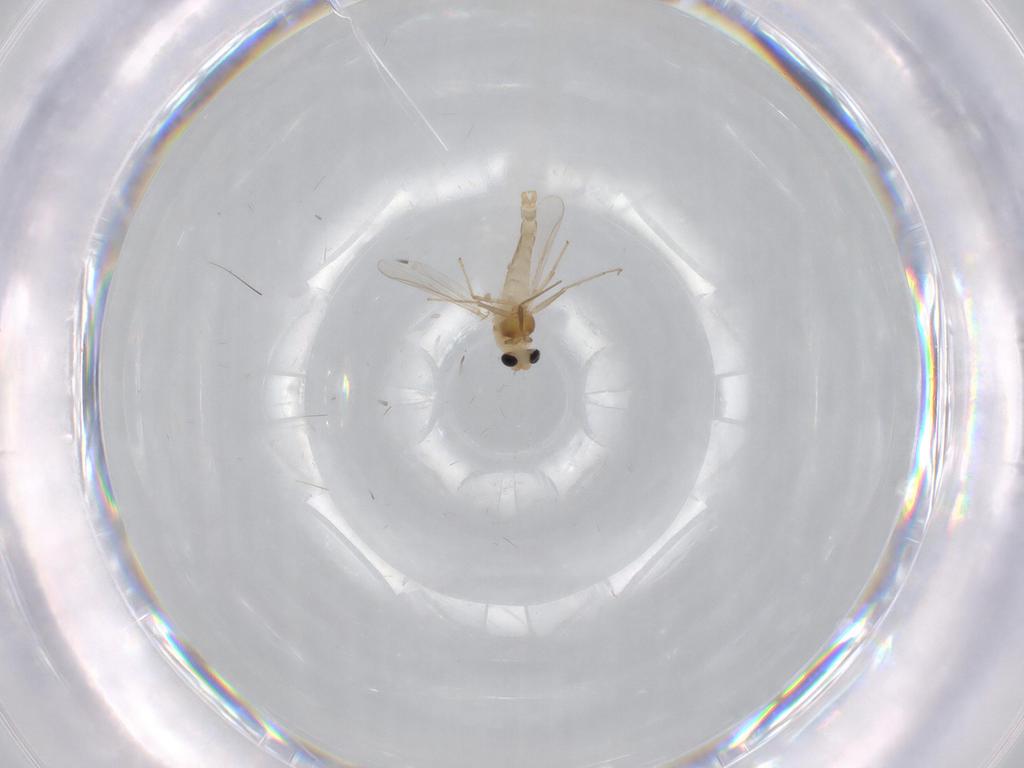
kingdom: Animalia
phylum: Arthropoda
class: Insecta
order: Diptera
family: Chironomidae
